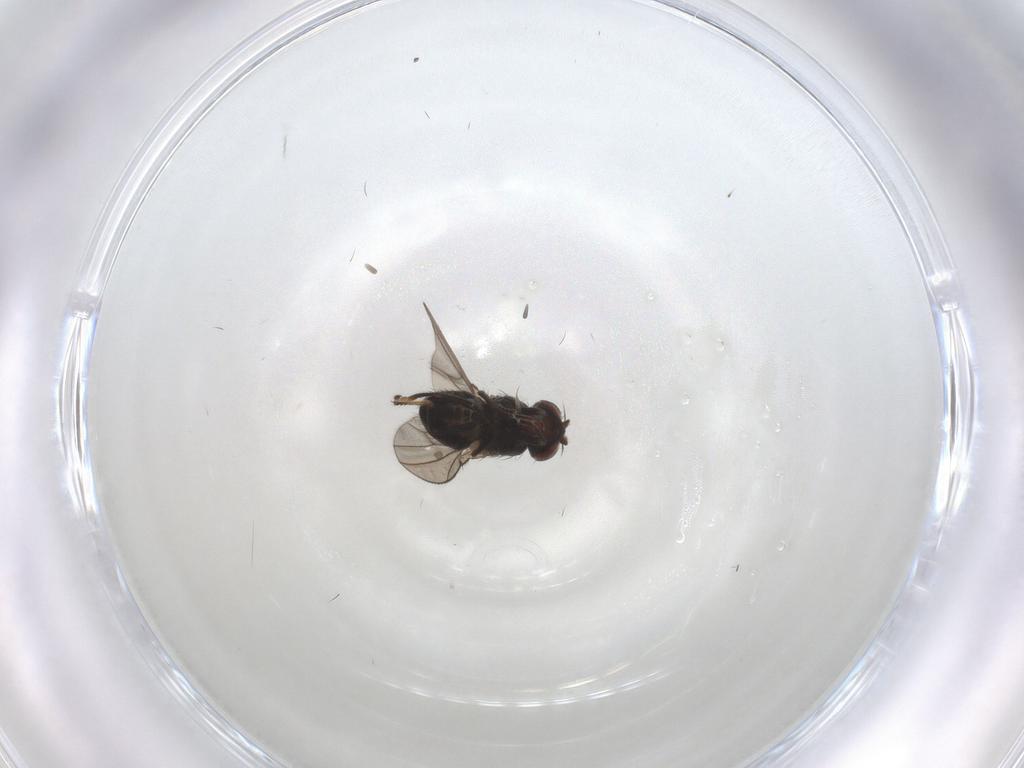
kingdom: Animalia
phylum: Arthropoda
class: Insecta
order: Diptera
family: Ephydridae
